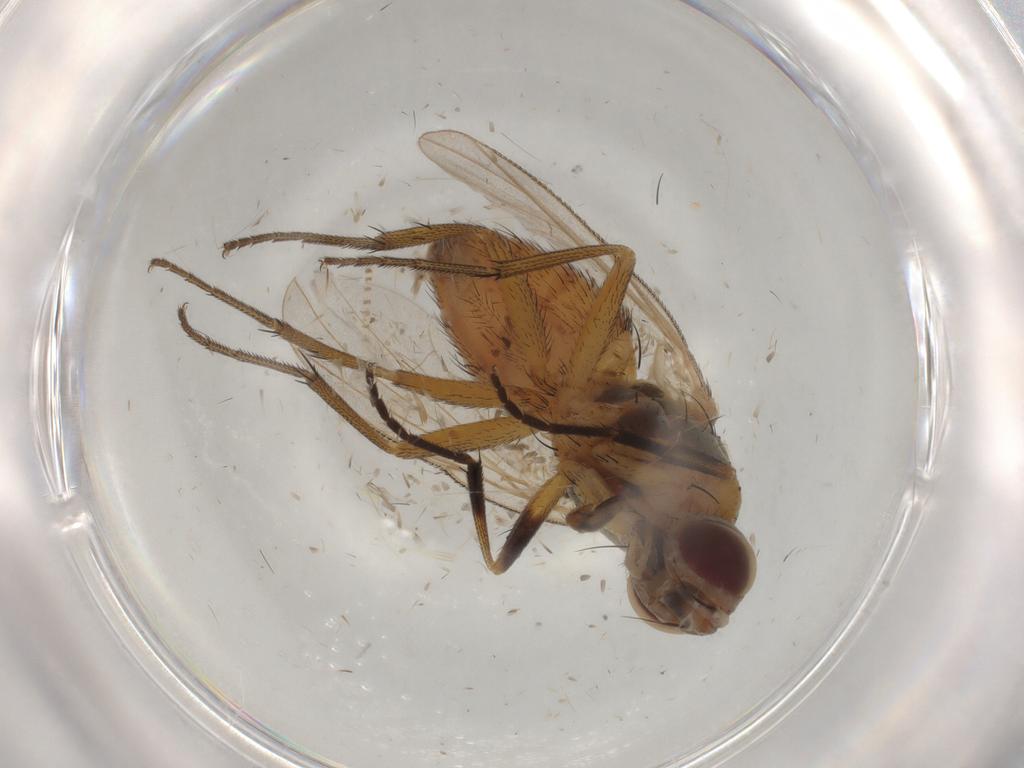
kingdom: Animalia
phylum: Arthropoda
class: Insecta
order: Diptera
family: Muscidae
